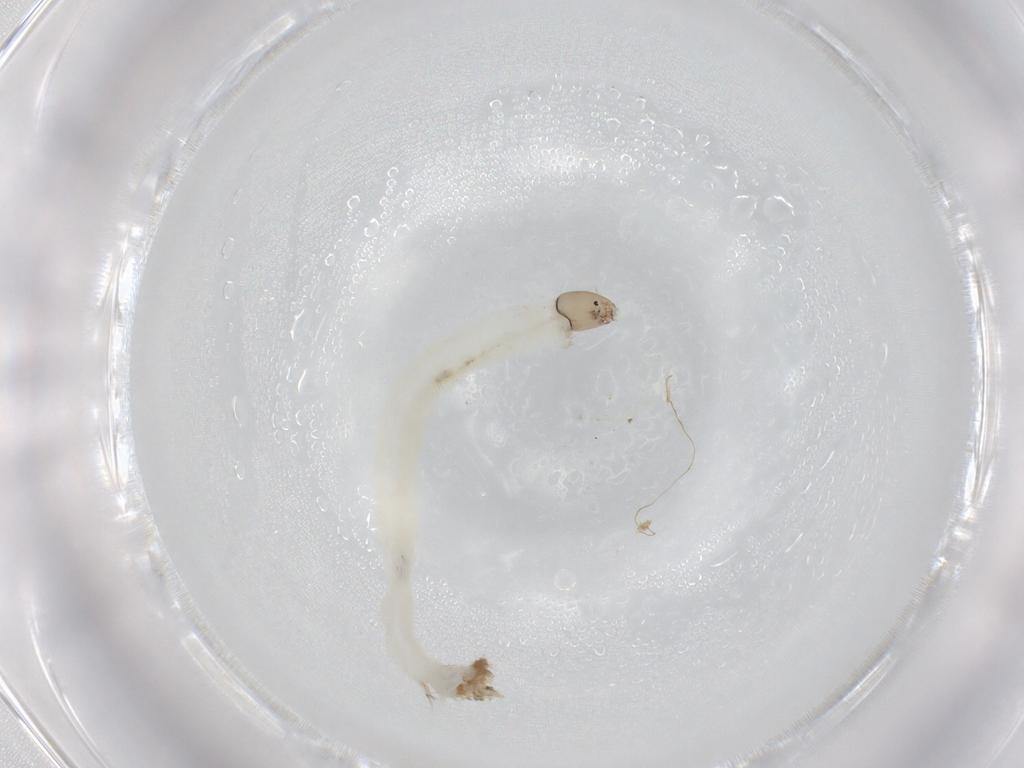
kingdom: Animalia
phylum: Arthropoda
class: Insecta
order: Diptera
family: Chironomidae
